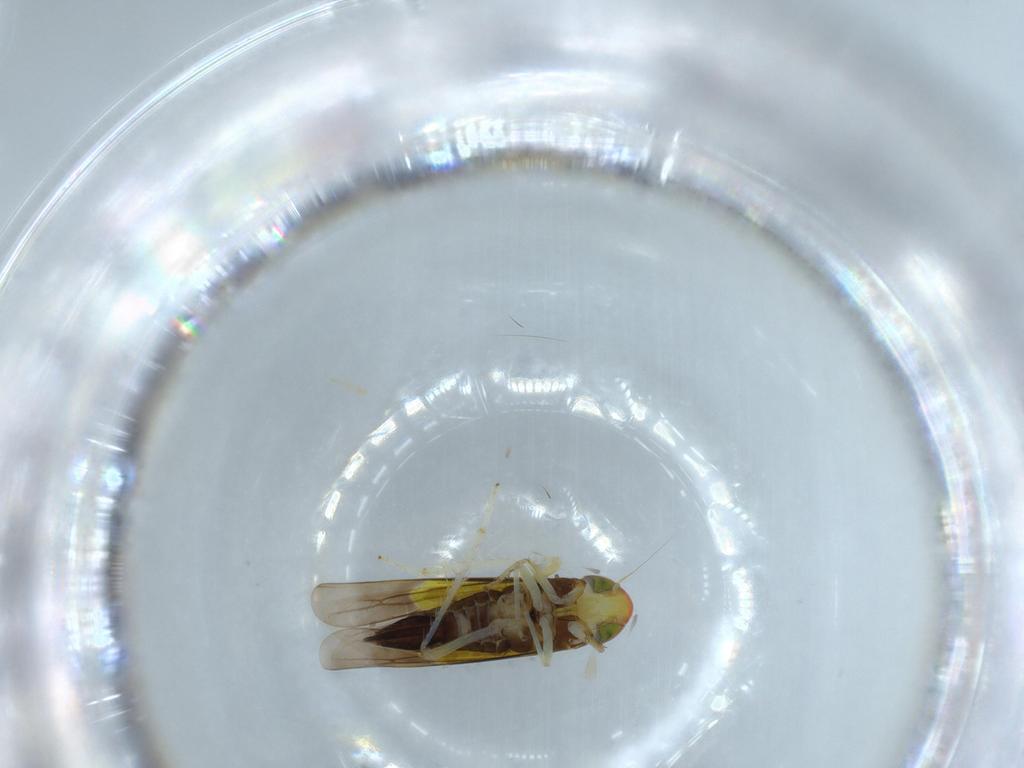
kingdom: Animalia
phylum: Arthropoda
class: Insecta
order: Hemiptera
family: Cicadellidae
